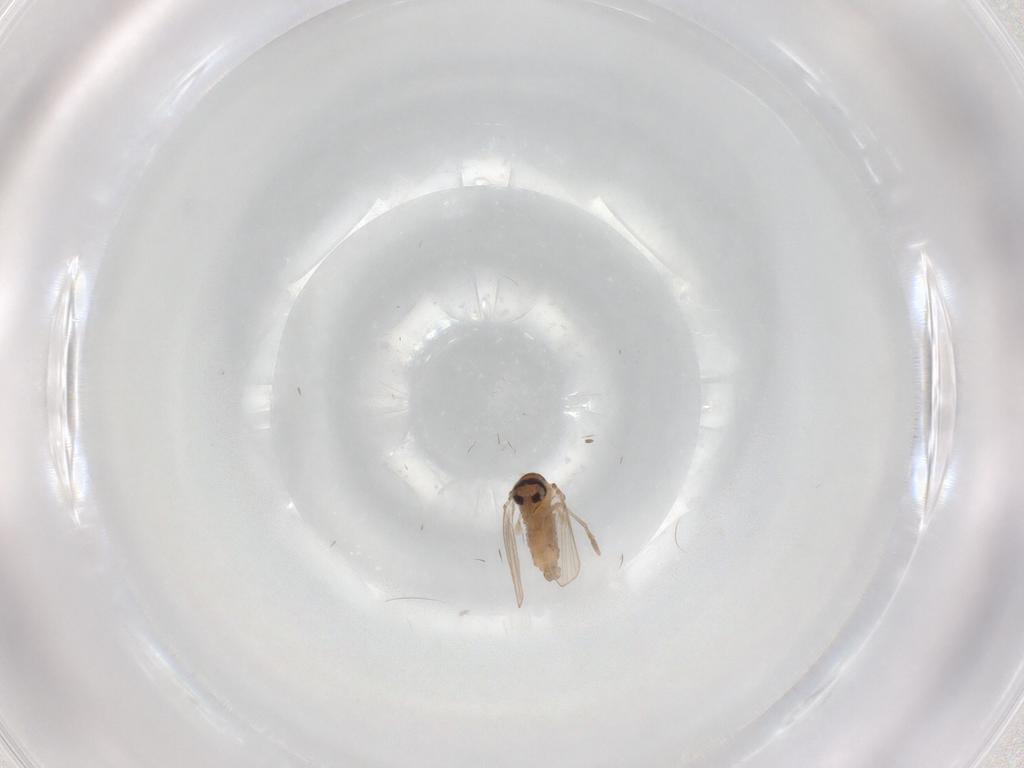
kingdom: Animalia
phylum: Arthropoda
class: Insecta
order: Diptera
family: Psychodidae
